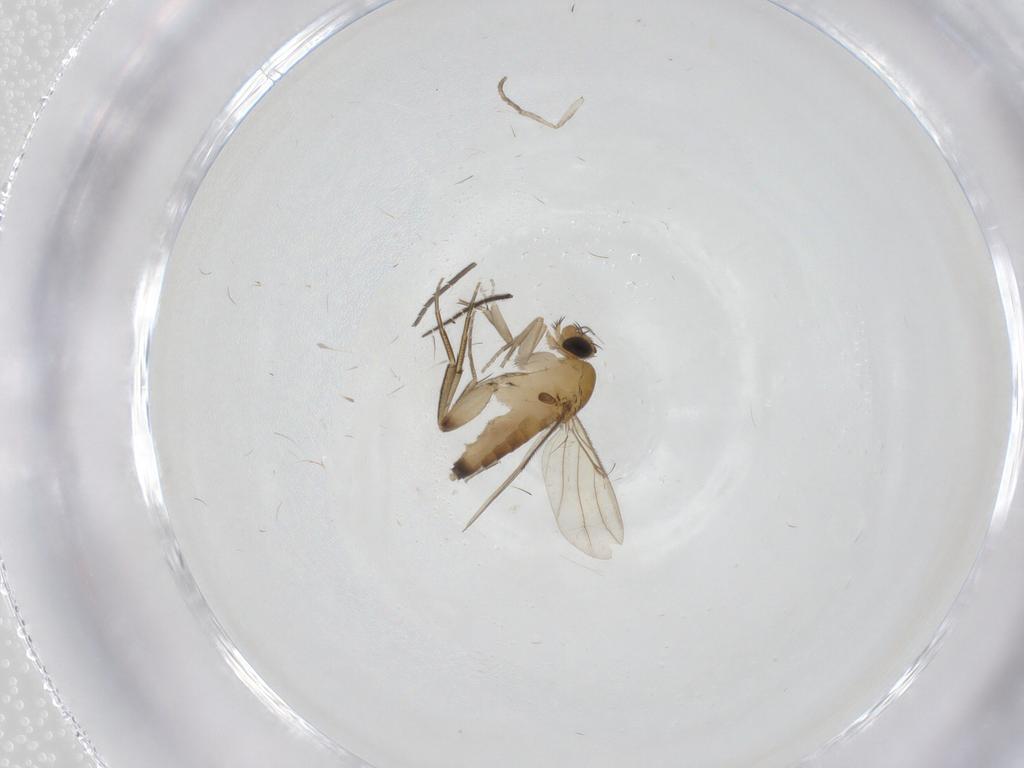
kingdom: Animalia
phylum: Arthropoda
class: Insecta
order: Diptera
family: Phoridae
